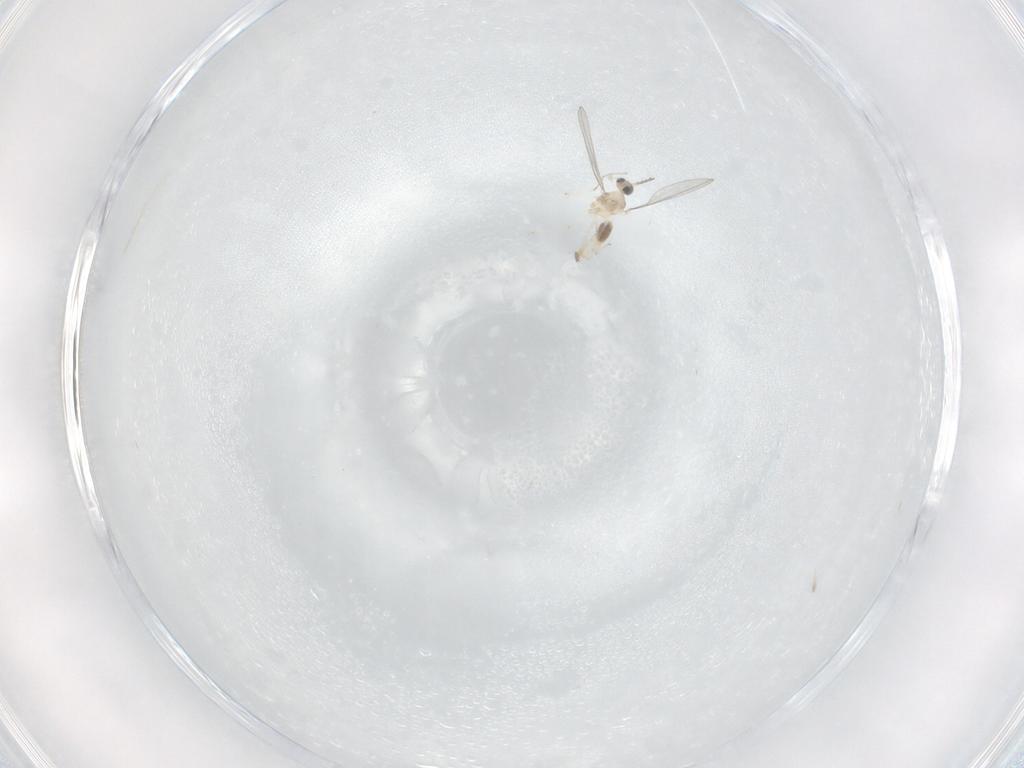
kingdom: Animalia
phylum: Arthropoda
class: Insecta
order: Diptera
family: Cecidomyiidae
